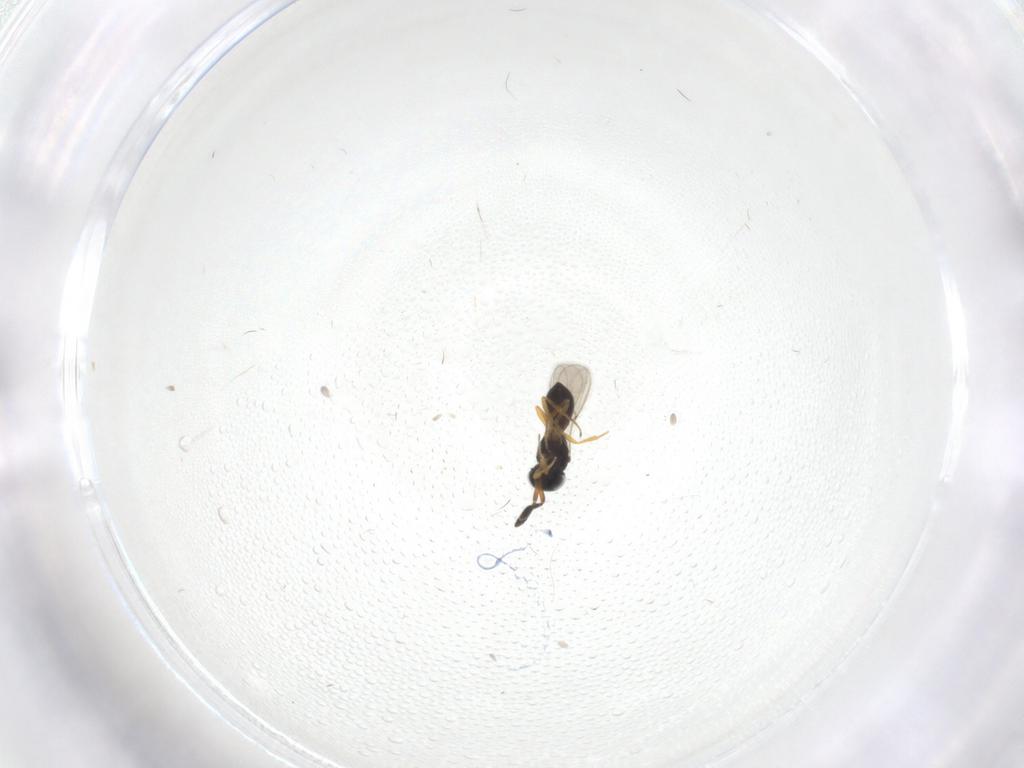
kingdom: Animalia
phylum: Arthropoda
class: Insecta
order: Hymenoptera
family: Scelionidae
